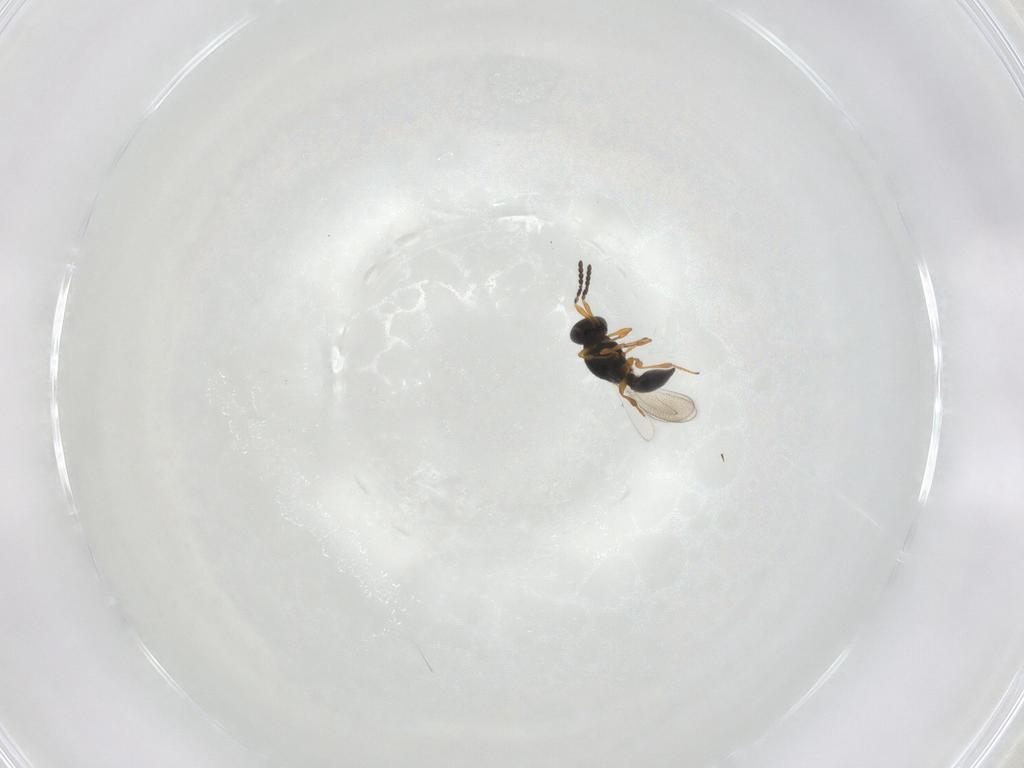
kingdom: Animalia
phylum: Arthropoda
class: Insecta
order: Hymenoptera
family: Platygastridae
